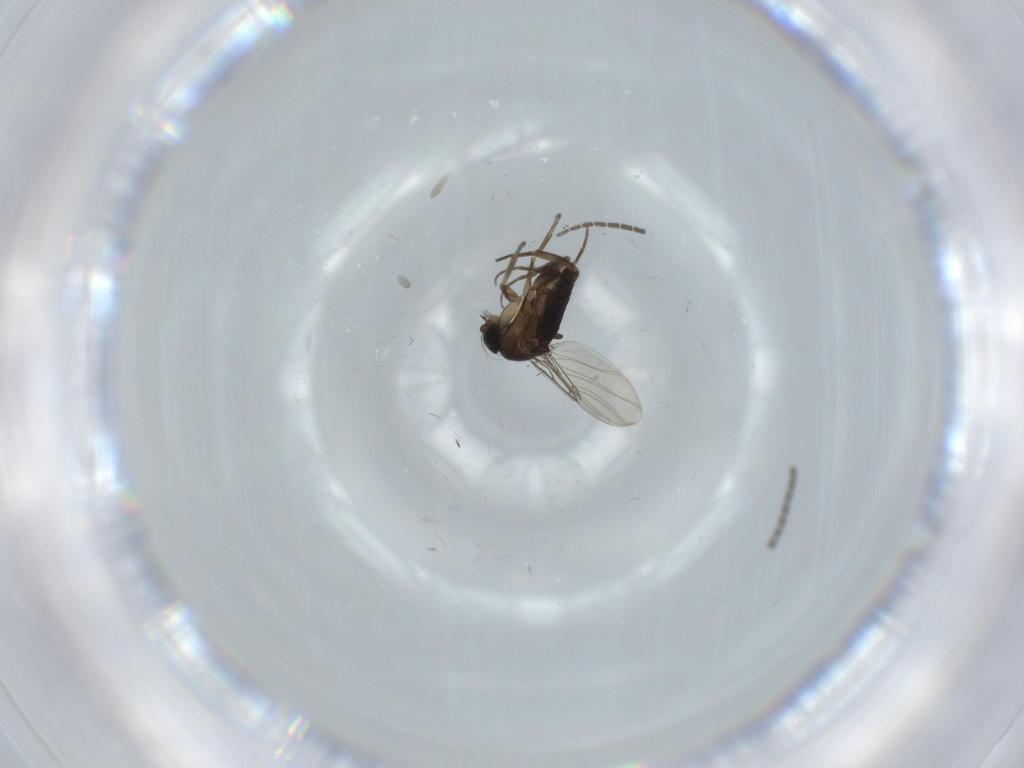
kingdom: Animalia
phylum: Arthropoda
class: Insecta
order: Diptera
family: Phoridae
